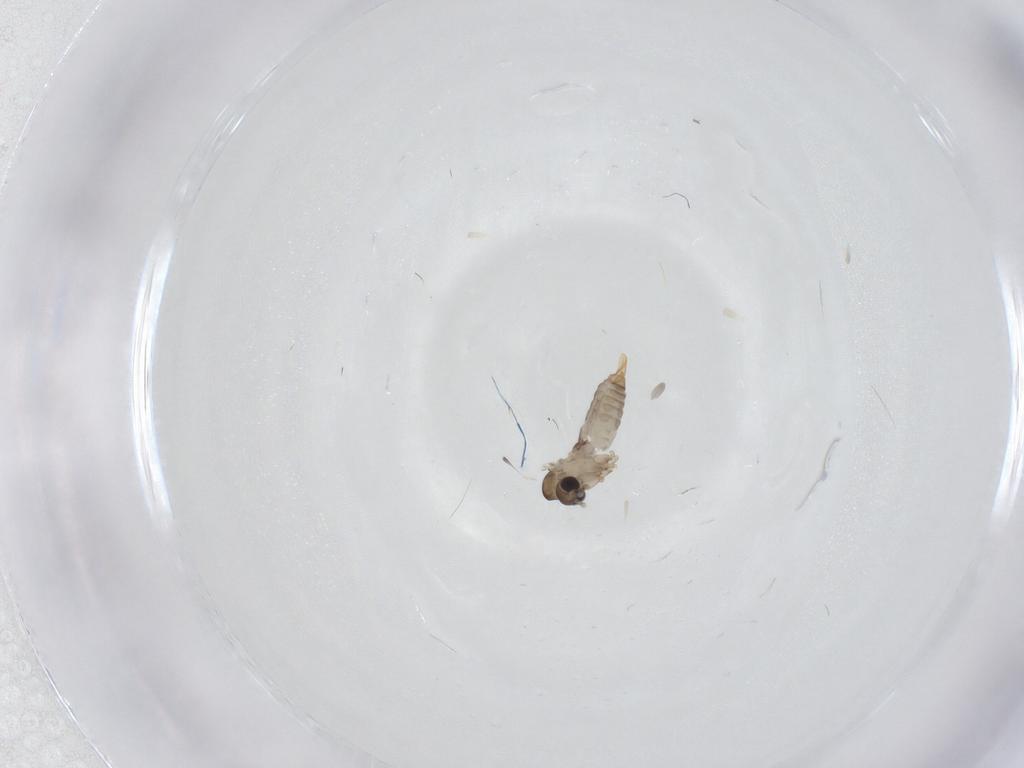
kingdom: Animalia
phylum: Arthropoda
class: Insecta
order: Diptera
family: Psychodidae
